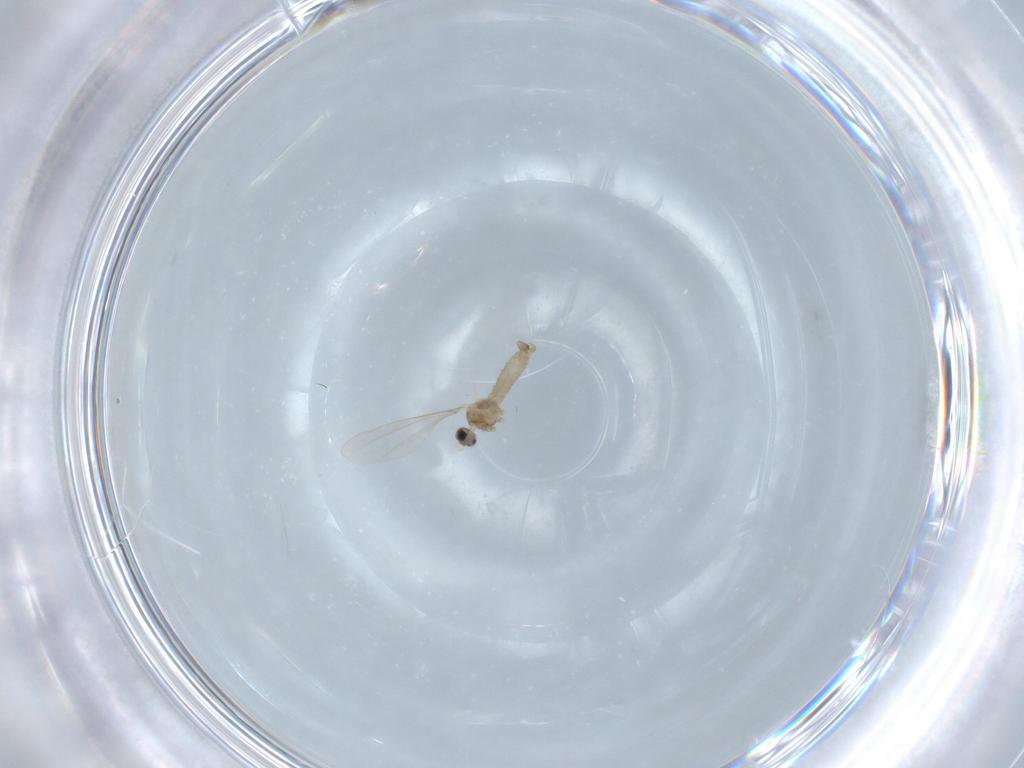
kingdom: Animalia
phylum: Arthropoda
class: Insecta
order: Diptera
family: Cecidomyiidae
